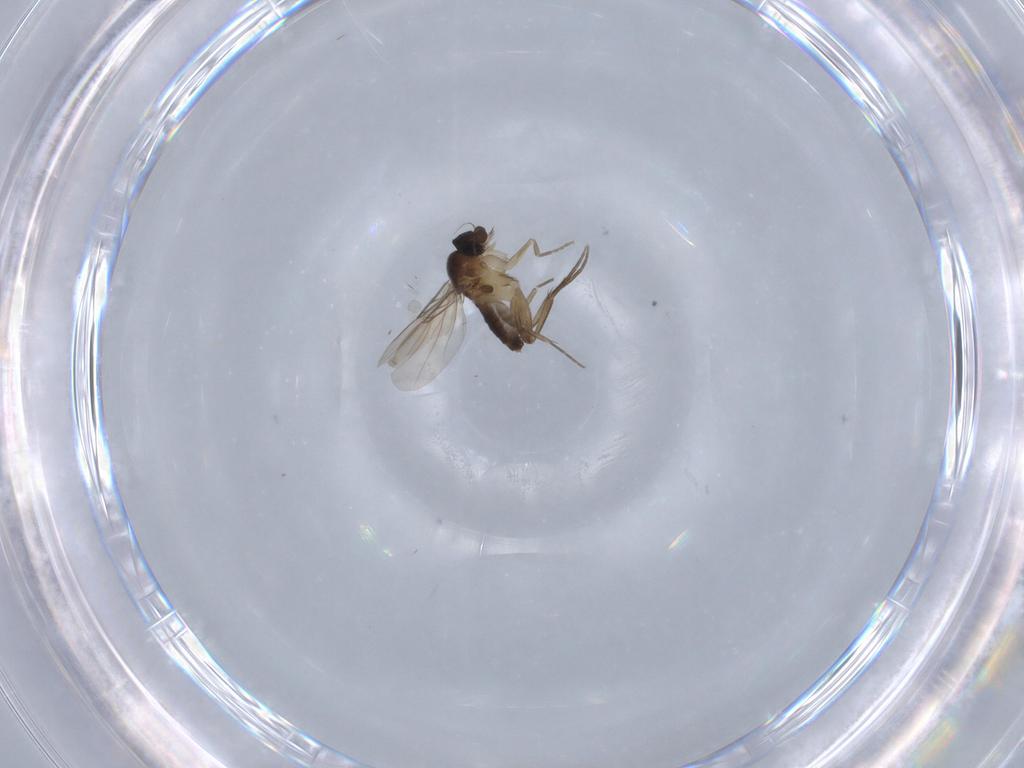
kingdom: Animalia
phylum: Arthropoda
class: Insecta
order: Diptera
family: Phoridae
